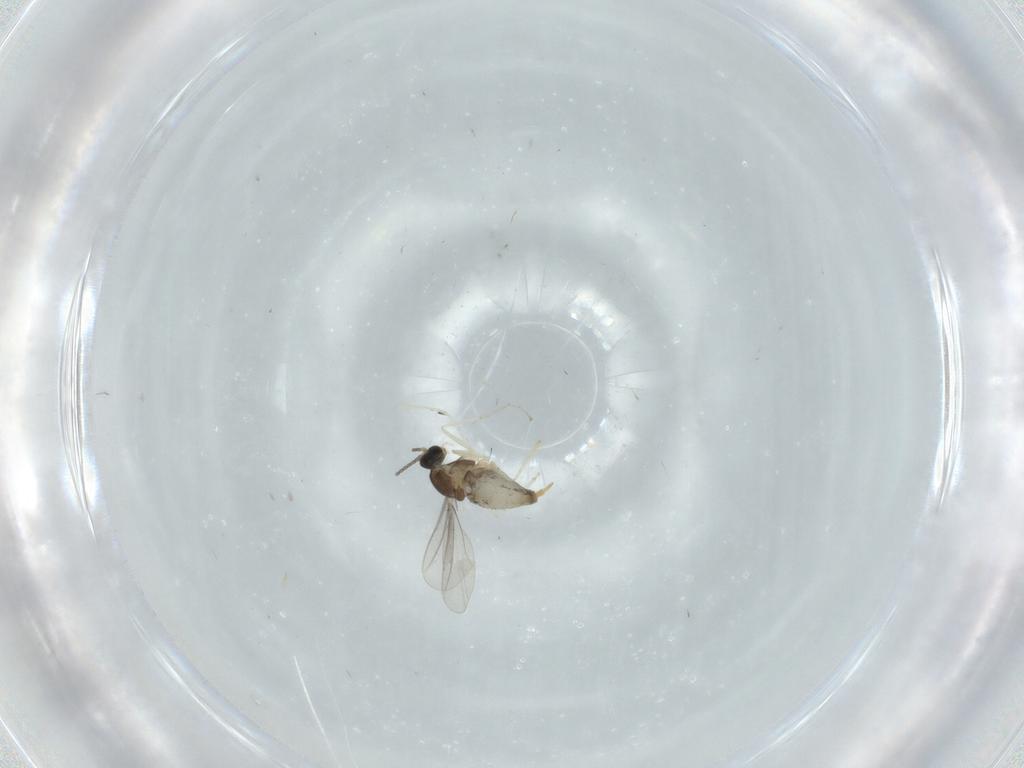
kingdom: Animalia
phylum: Arthropoda
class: Insecta
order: Diptera
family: Cecidomyiidae
